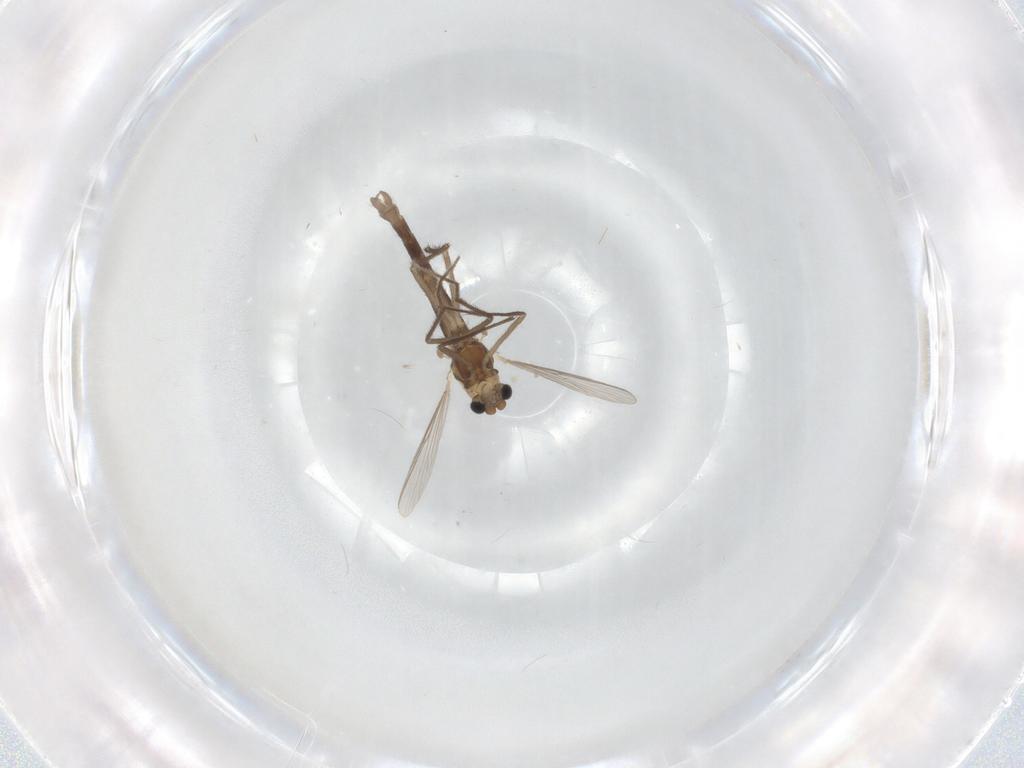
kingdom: Animalia
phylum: Arthropoda
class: Insecta
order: Diptera
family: Chironomidae
